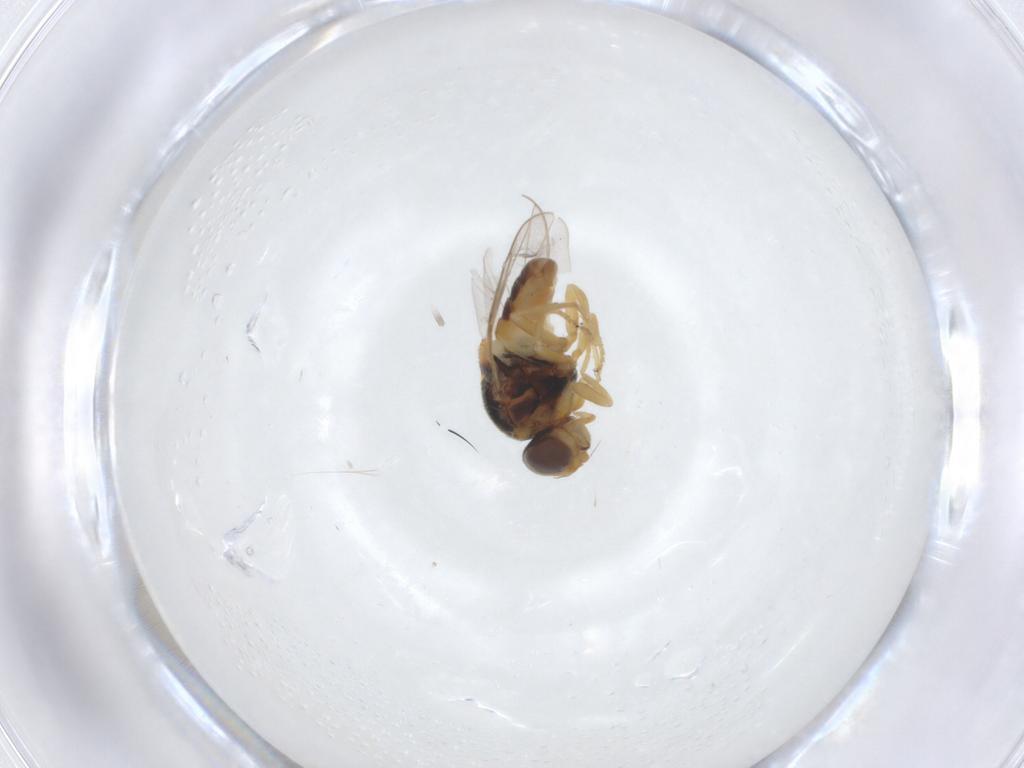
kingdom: Animalia
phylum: Arthropoda
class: Insecta
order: Diptera
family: Chloropidae
